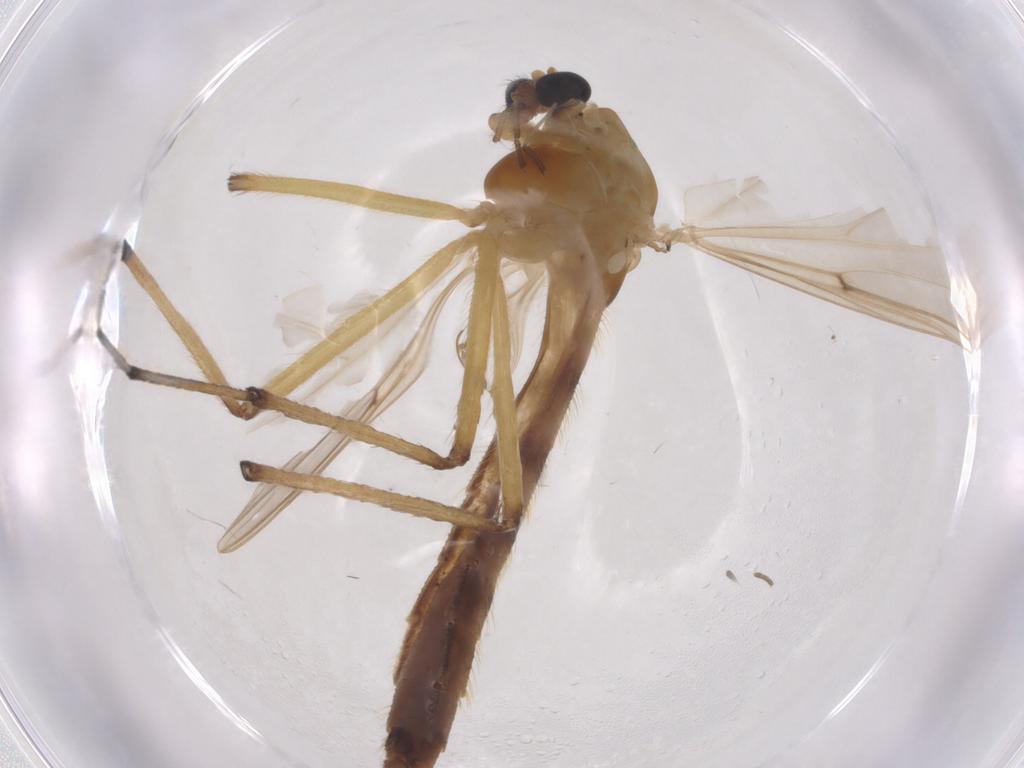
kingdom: Animalia
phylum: Arthropoda
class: Insecta
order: Diptera
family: Chironomidae
